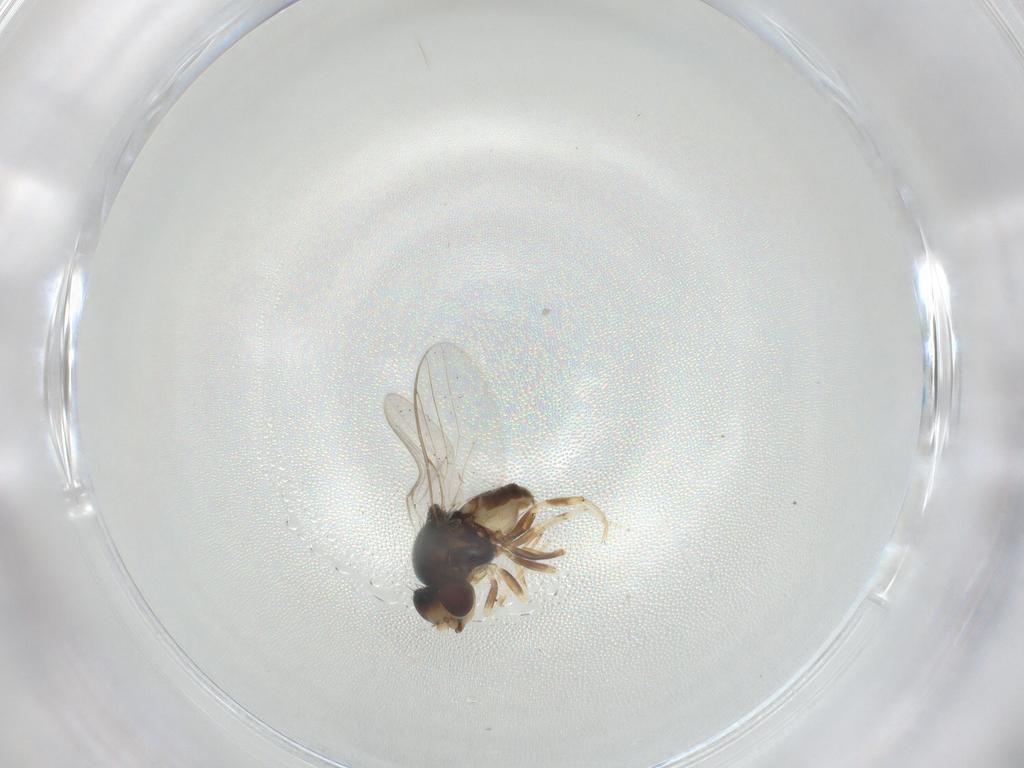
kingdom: Animalia
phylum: Arthropoda
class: Insecta
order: Diptera
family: Chloropidae
